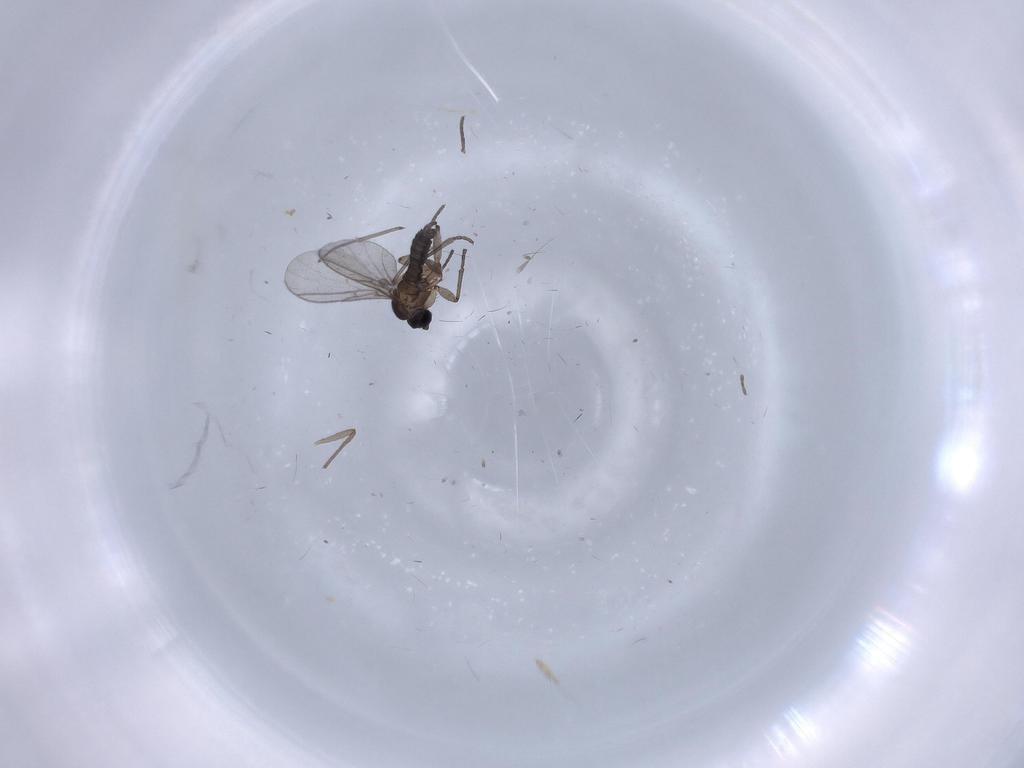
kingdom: Animalia
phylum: Arthropoda
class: Insecta
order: Diptera
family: Chironomidae
